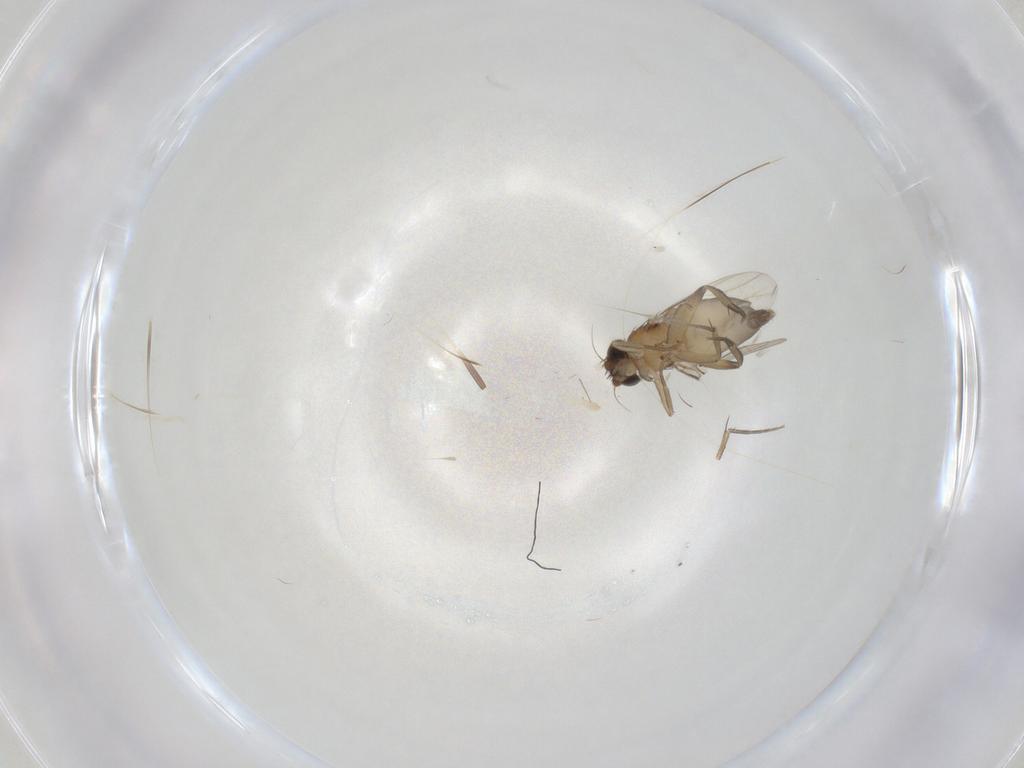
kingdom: Animalia
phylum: Arthropoda
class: Insecta
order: Diptera
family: Phoridae
